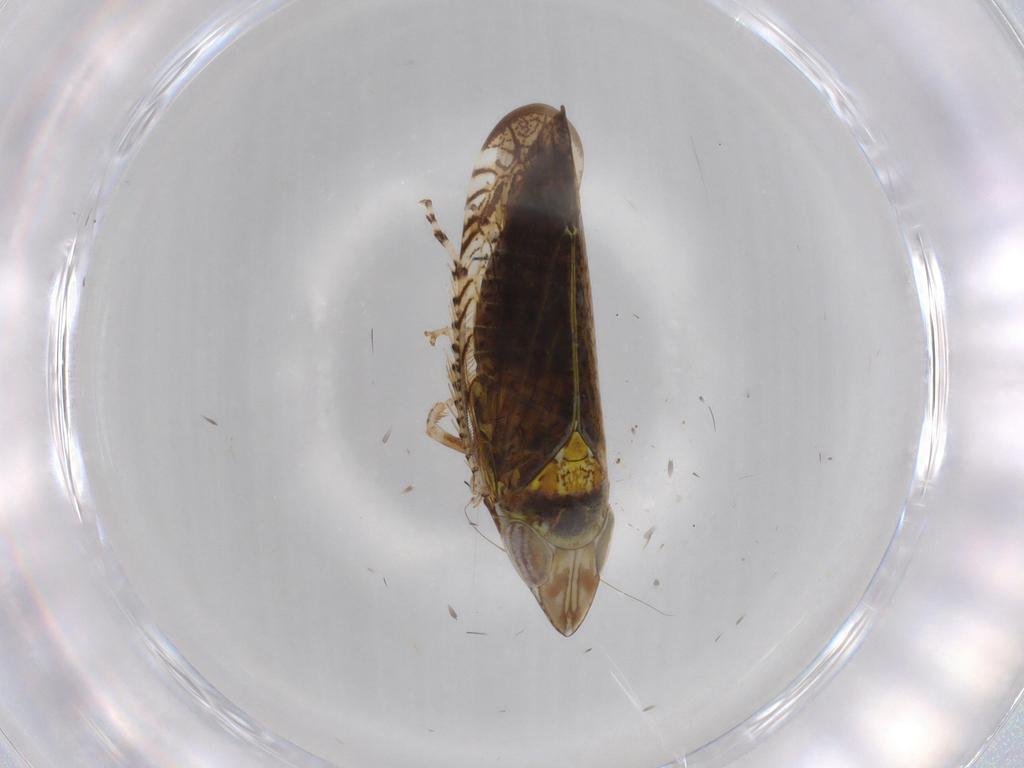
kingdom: Animalia
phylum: Arthropoda
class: Insecta
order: Hemiptera
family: Cicadellidae
